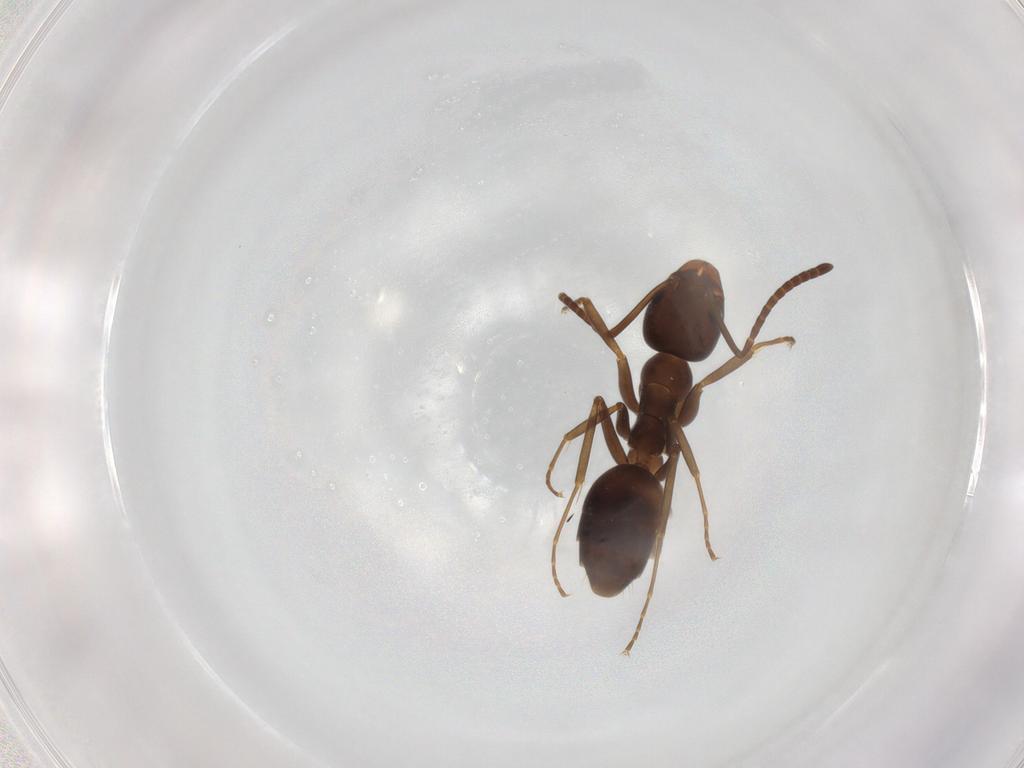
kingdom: Animalia
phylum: Arthropoda
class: Insecta
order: Hymenoptera
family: Formicidae
